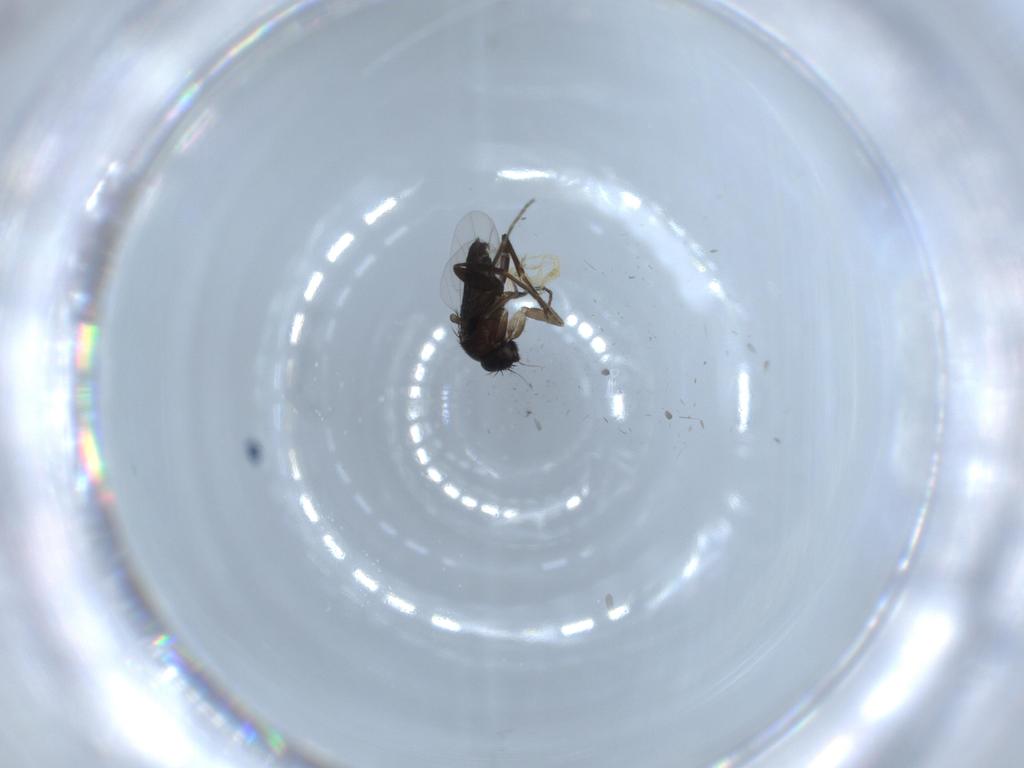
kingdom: Animalia
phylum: Arthropoda
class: Insecta
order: Diptera
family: Phoridae
